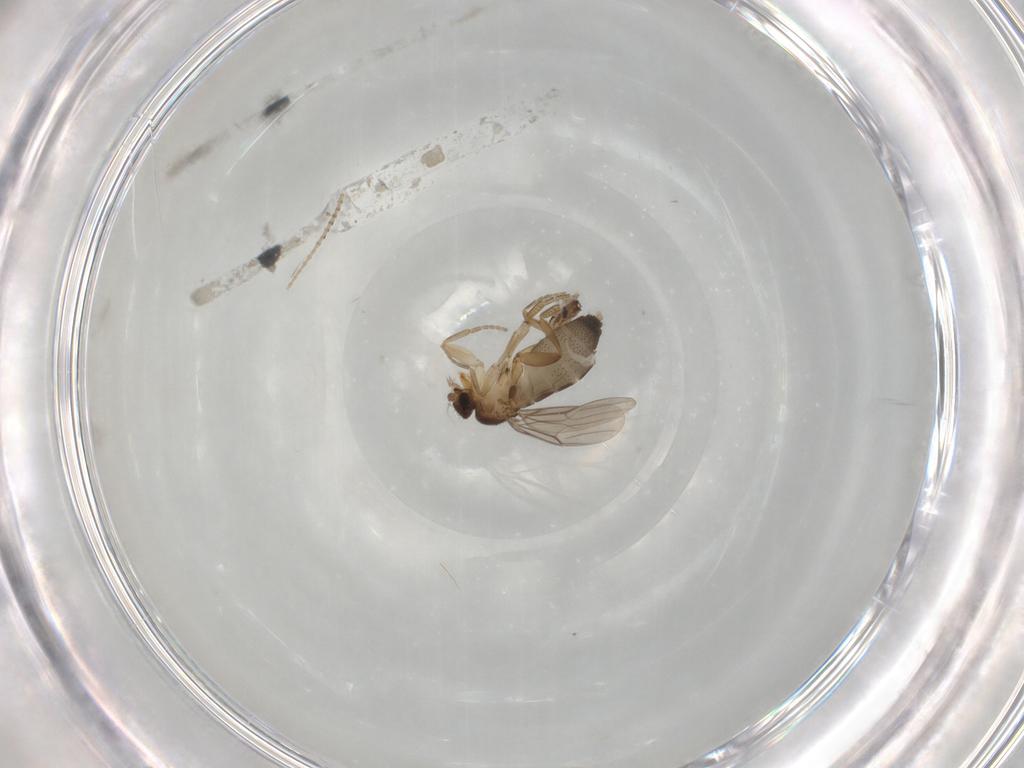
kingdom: Animalia
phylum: Arthropoda
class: Insecta
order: Diptera
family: Phoridae
